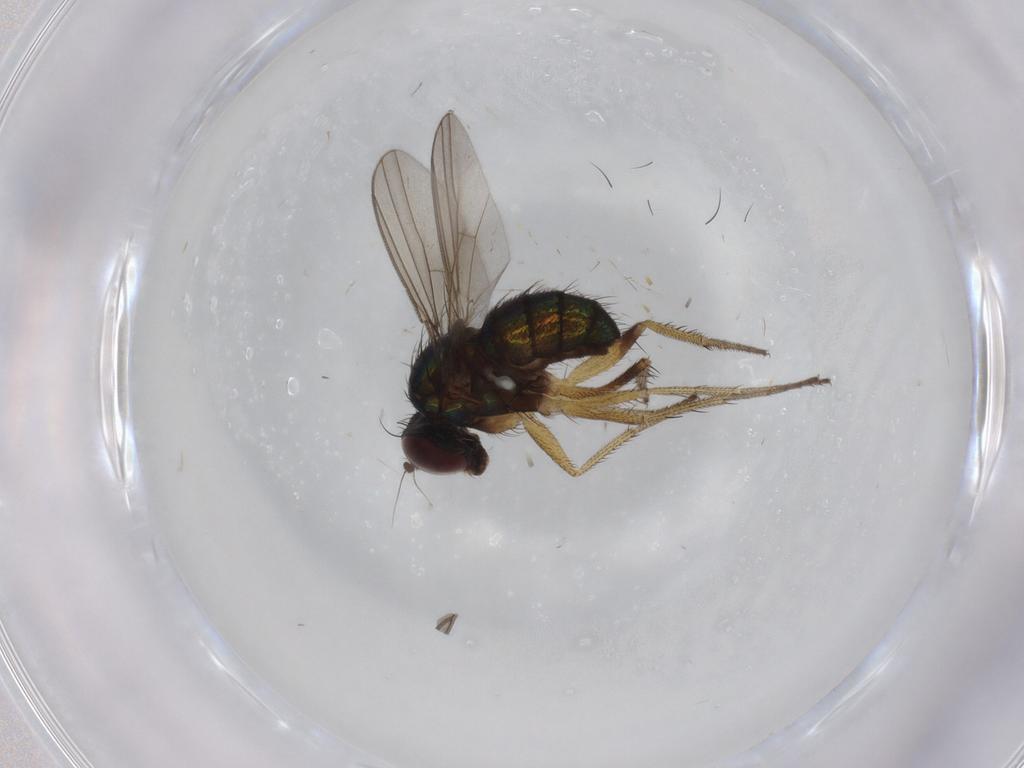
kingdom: Animalia
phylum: Arthropoda
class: Insecta
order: Diptera
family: Dolichopodidae
